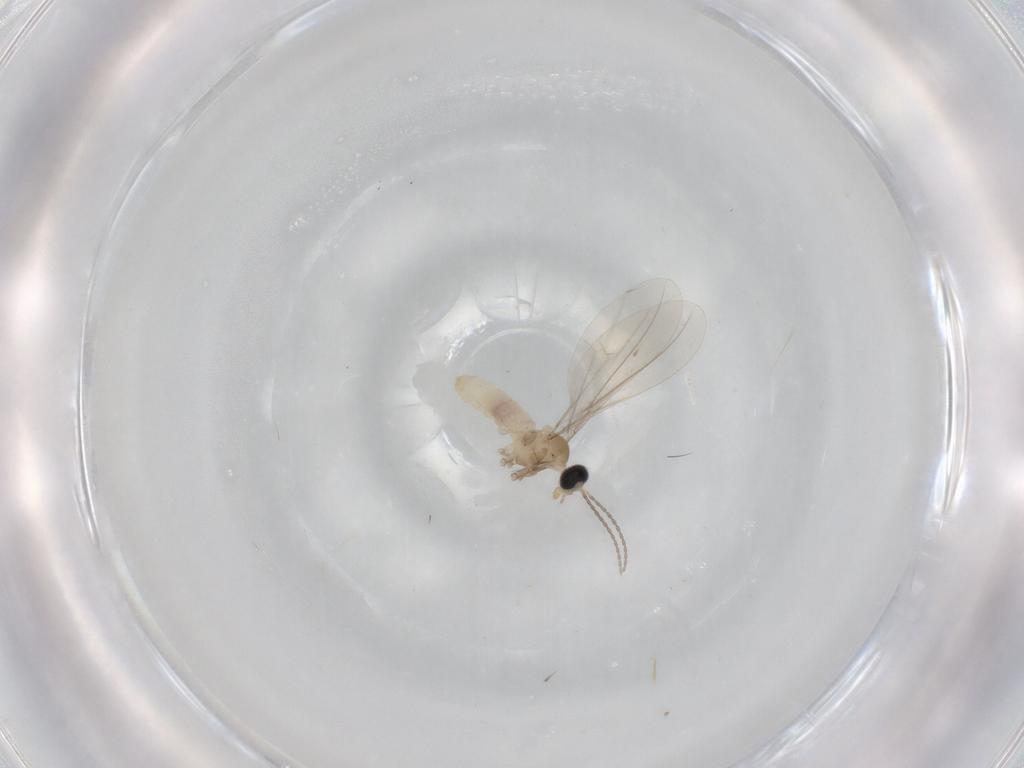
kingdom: Animalia
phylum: Arthropoda
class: Insecta
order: Diptera
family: Cecidomyiidae
